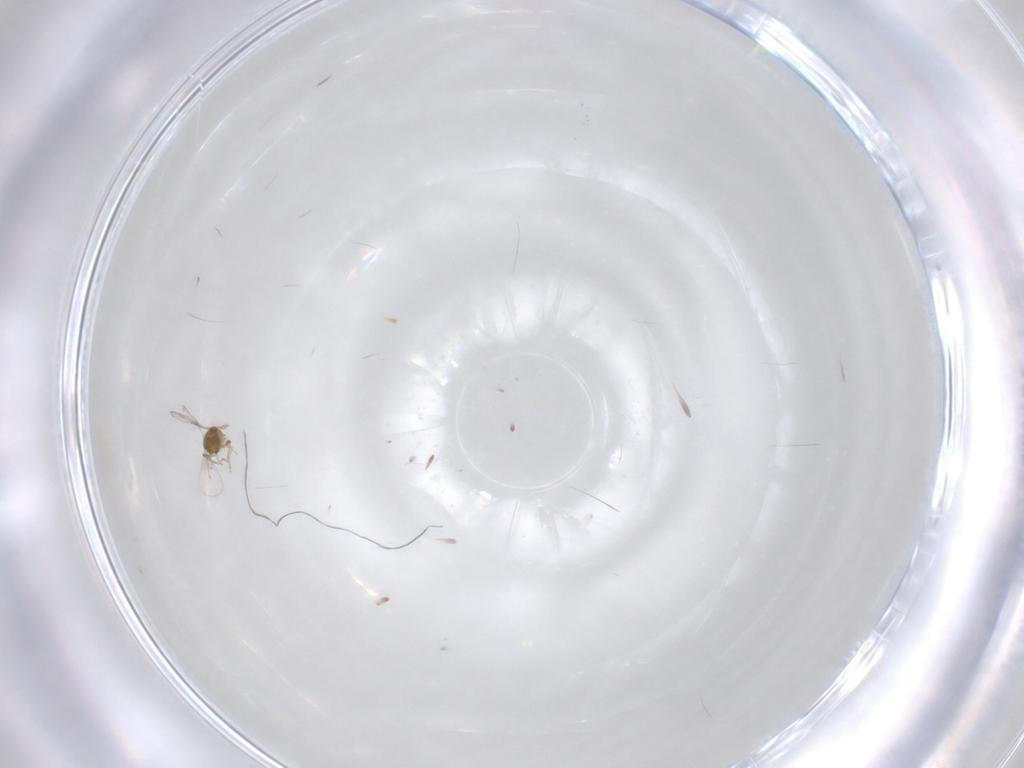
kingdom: Animalia
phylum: Arthropoda
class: Insecta
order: Hymenoptera
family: Trichogrammatidae
